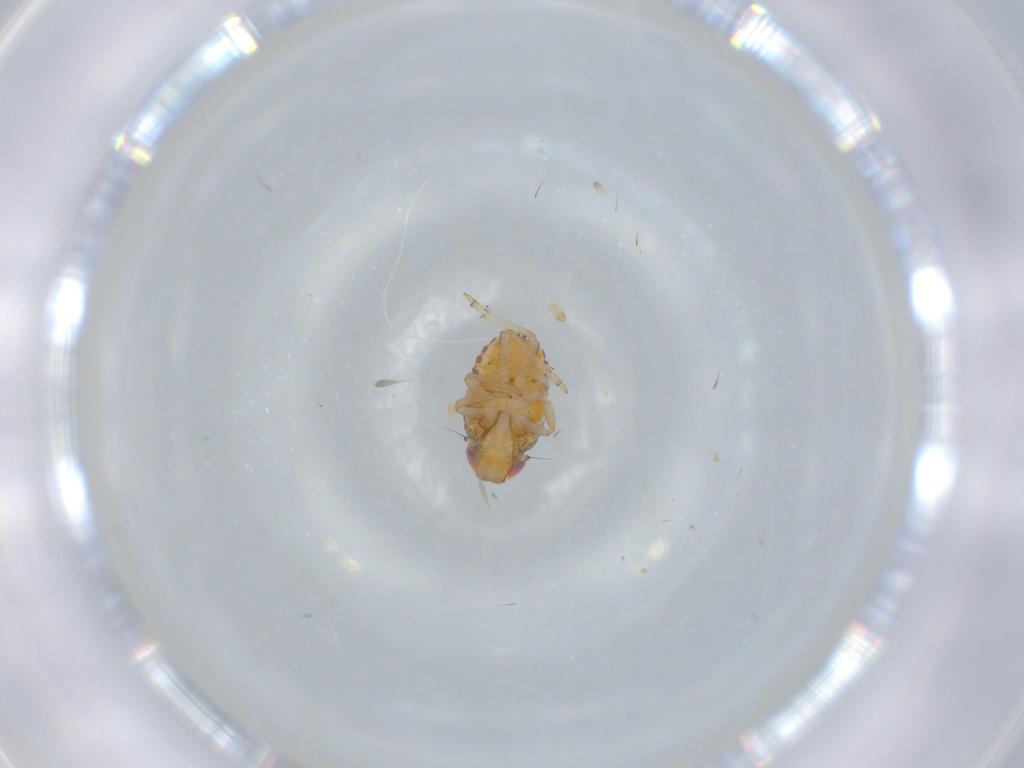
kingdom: Animalia
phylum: Arthropoda
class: Insecta
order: Hemiptera
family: Issidae
